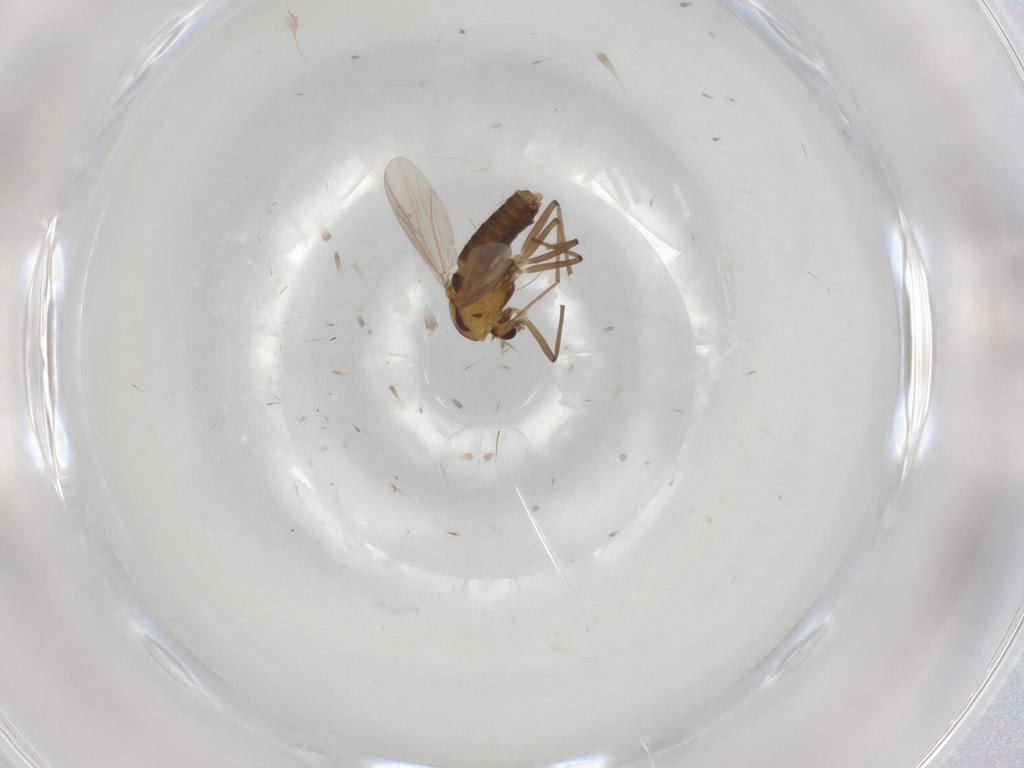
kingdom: Animalia
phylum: Arthropoda
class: Insecta
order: Diptera
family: Chironomidae
